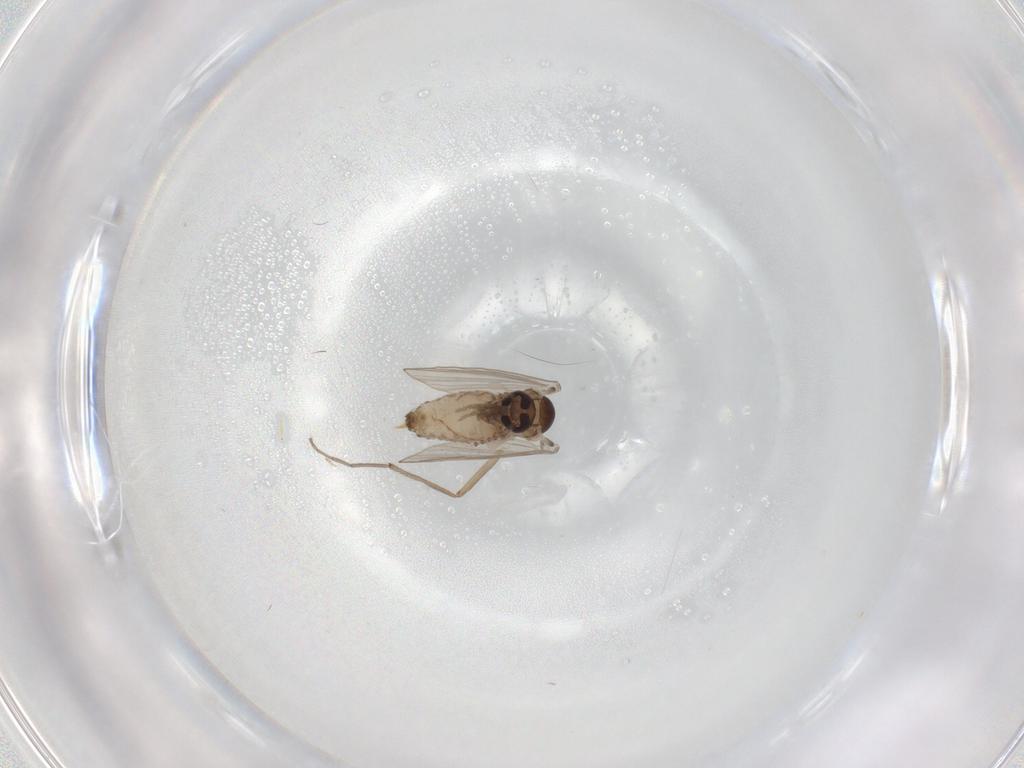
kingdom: Animalia
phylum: Arthropoda
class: Insecta
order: Diptera
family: Psychodidae
